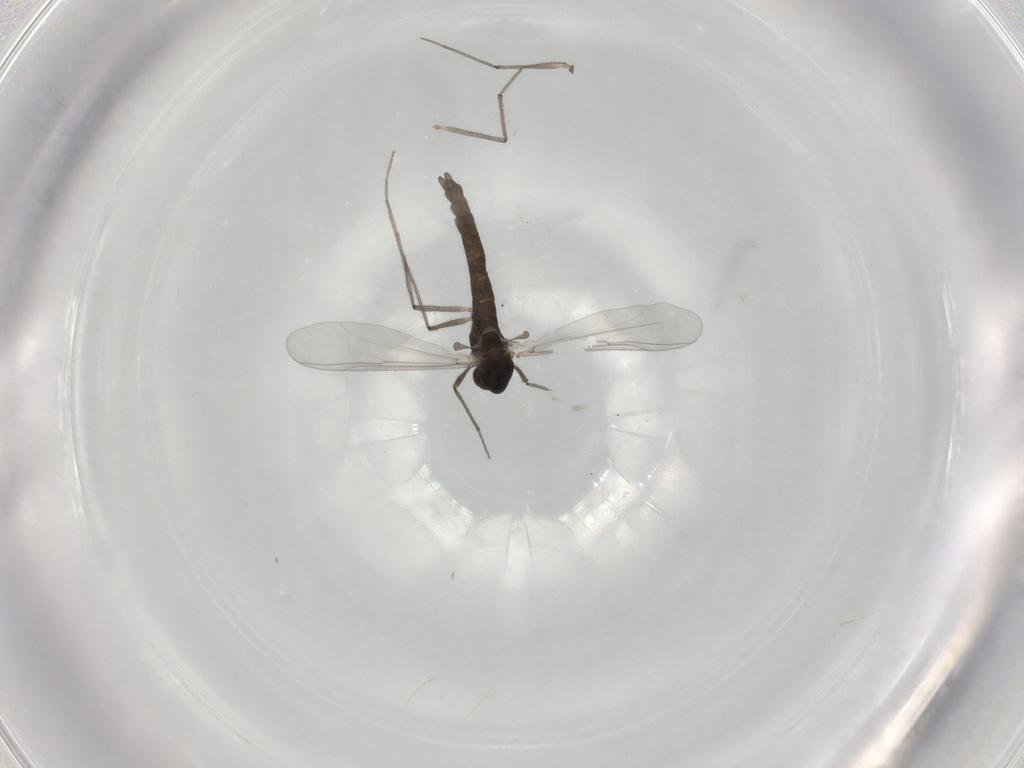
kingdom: Animalia
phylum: Arthropoda
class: Insecta
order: Diptera
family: Chironomidae
